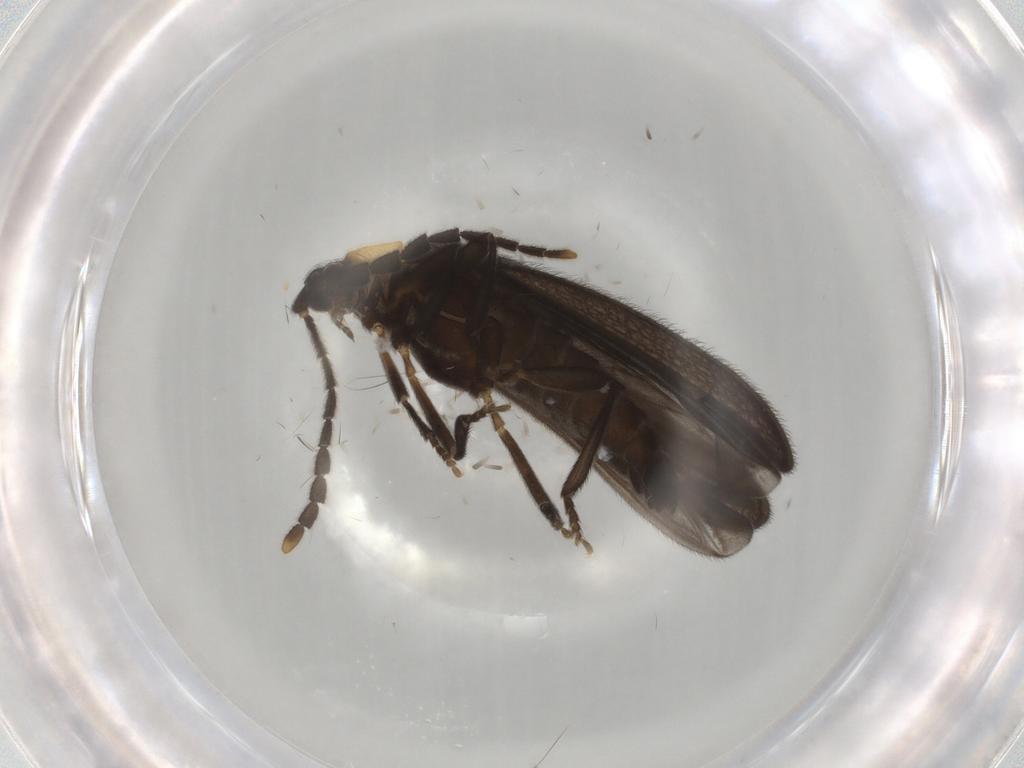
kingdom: Animalia
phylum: Arthropoda
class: Insecta
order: Coleoptera
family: Lycidae
